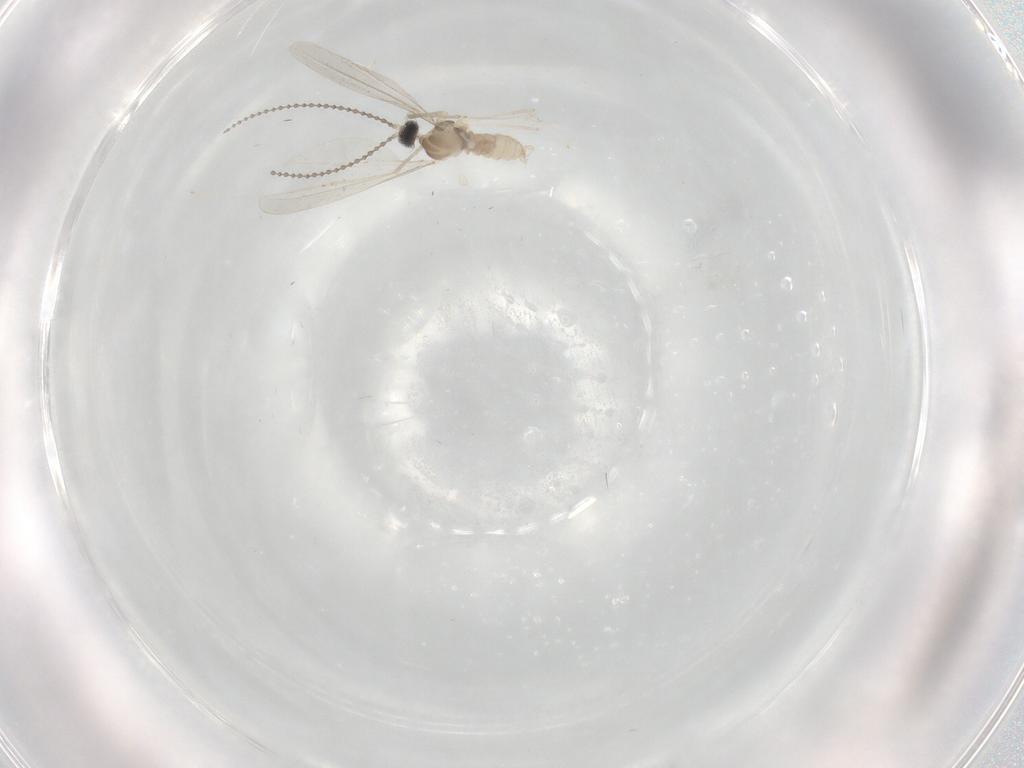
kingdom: Animalia
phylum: Arthropoda
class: Insecta
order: Diptera
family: Cecidomyiidae
